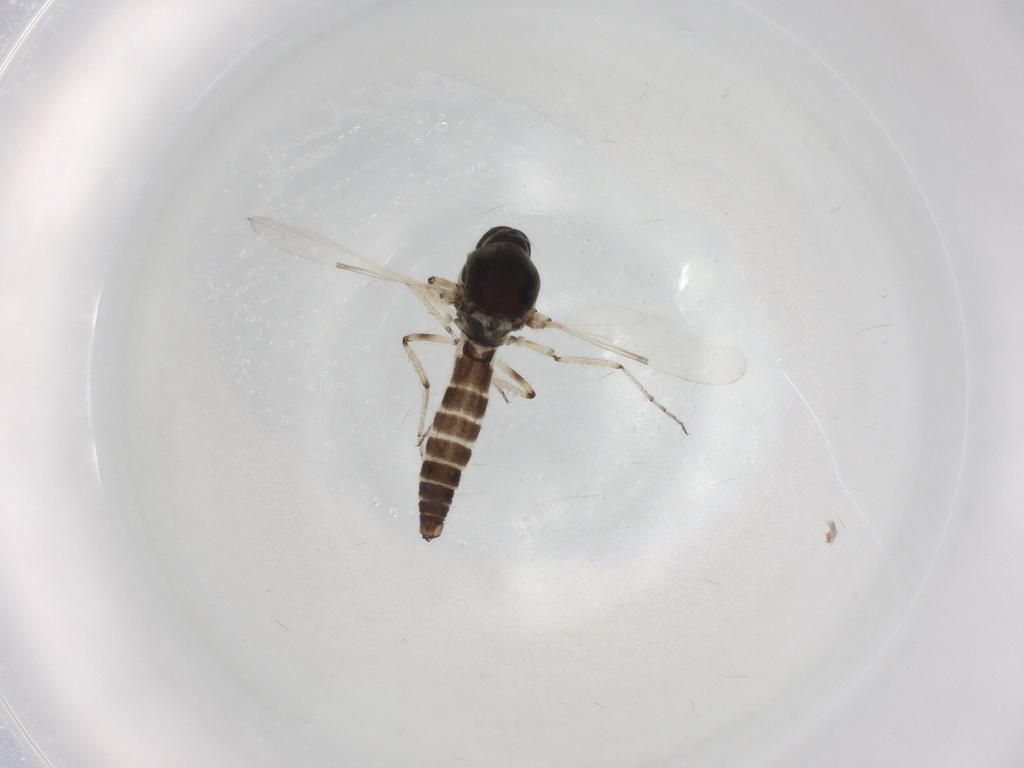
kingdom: Animalia
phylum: Arthropoda
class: Insecta
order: Diptera
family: Ceratopogonidae
